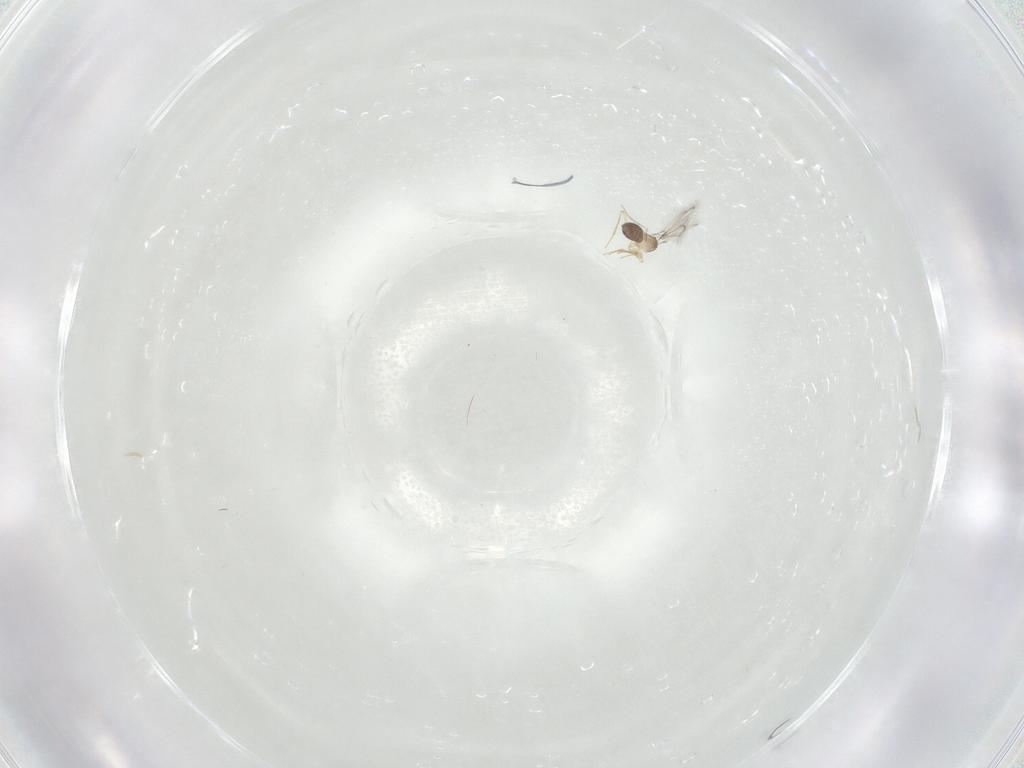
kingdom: Animalia
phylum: Arthropoda
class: Insecta
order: Hymenoptera
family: Mymaridae
